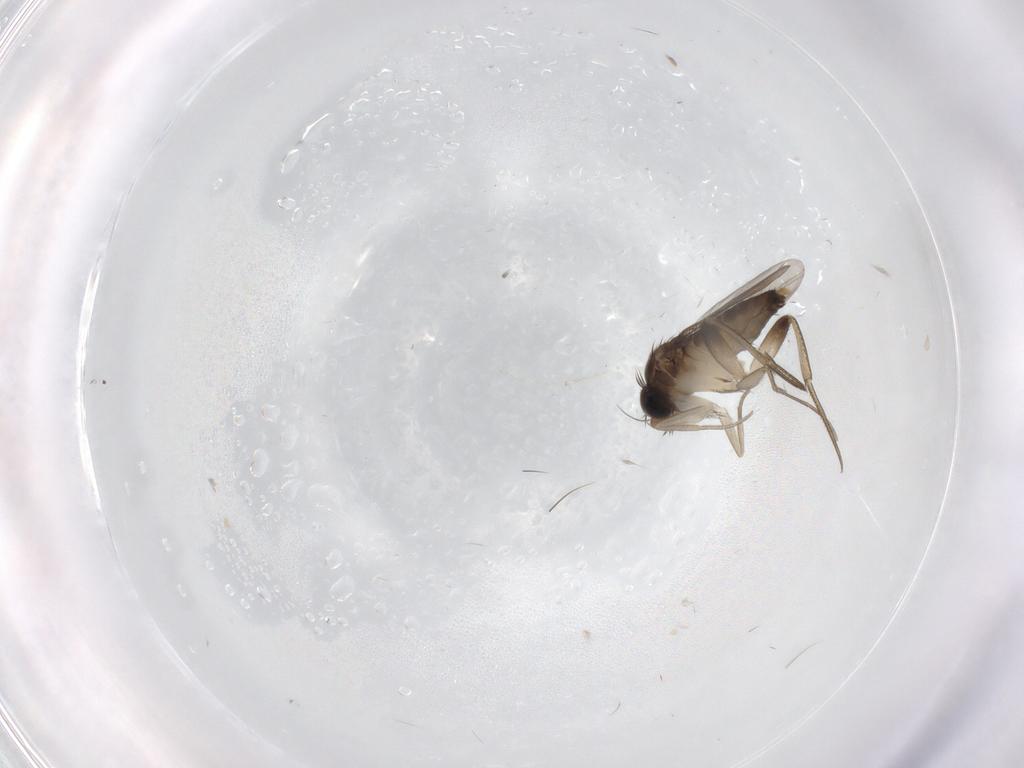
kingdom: Animalia
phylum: Arthropoda
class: Insecta
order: Diptera
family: Phoridae
